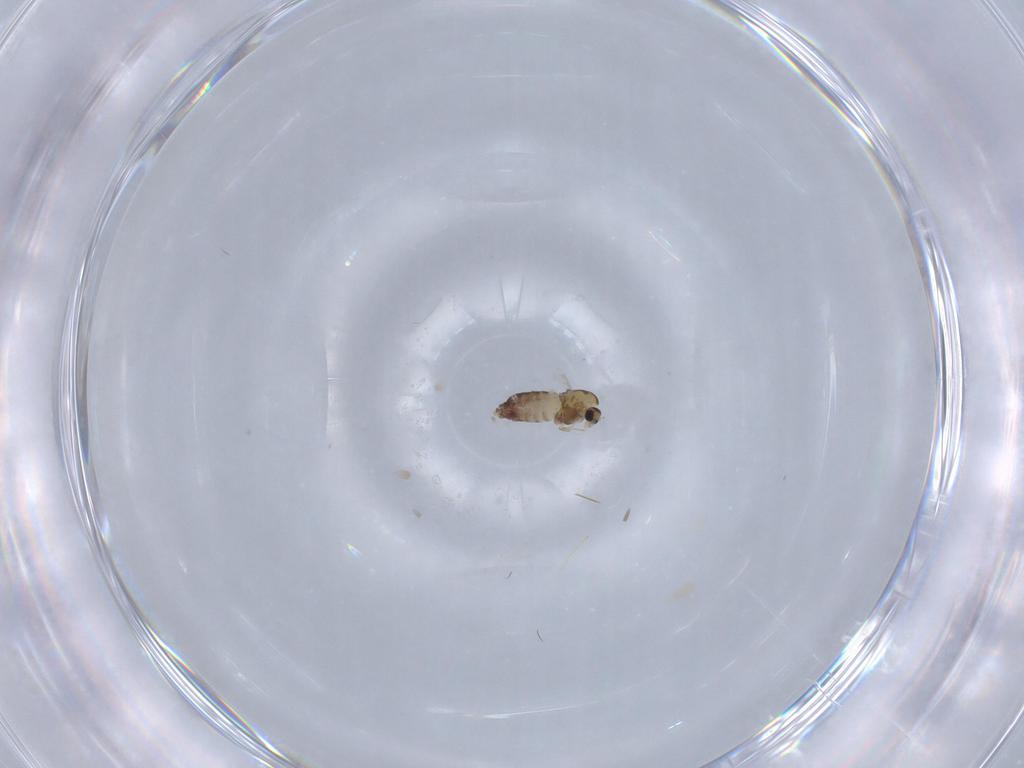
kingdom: Animalia
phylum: Arthropoda
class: Insecta
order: Diptera
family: Chironomidae
